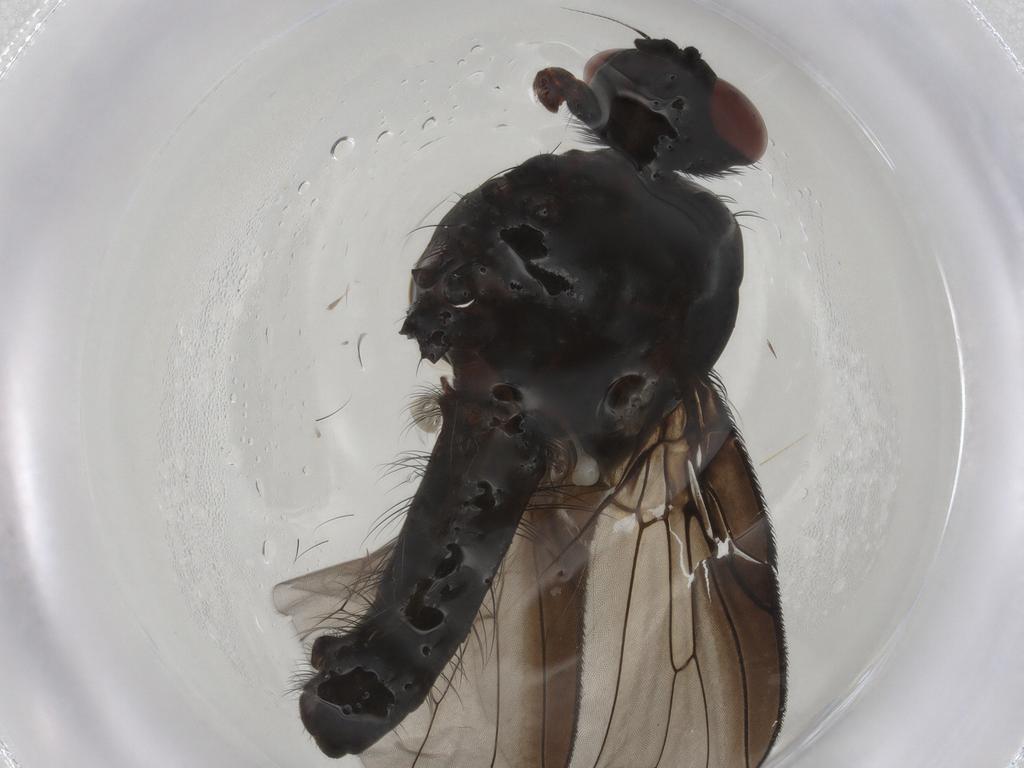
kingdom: Animalia
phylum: Arthropoda
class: Insecta
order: Diptera
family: Anthomyiidae
